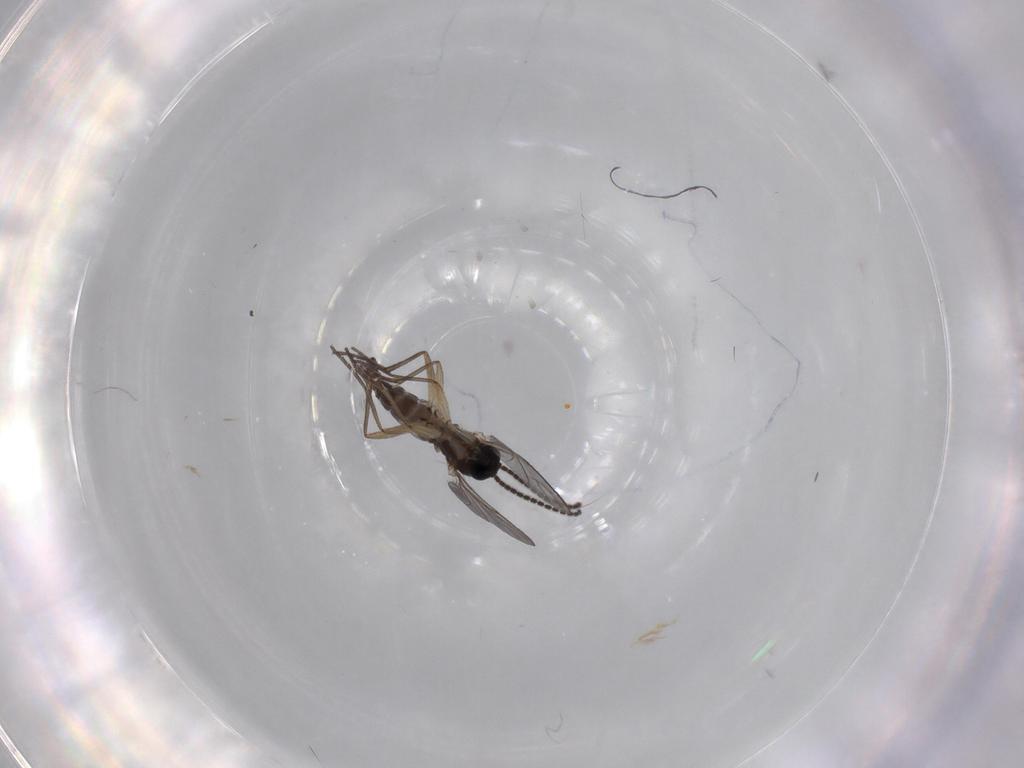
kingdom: Animalia
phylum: Arthropoda
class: Insecta
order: Diptera
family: Sciaridae
